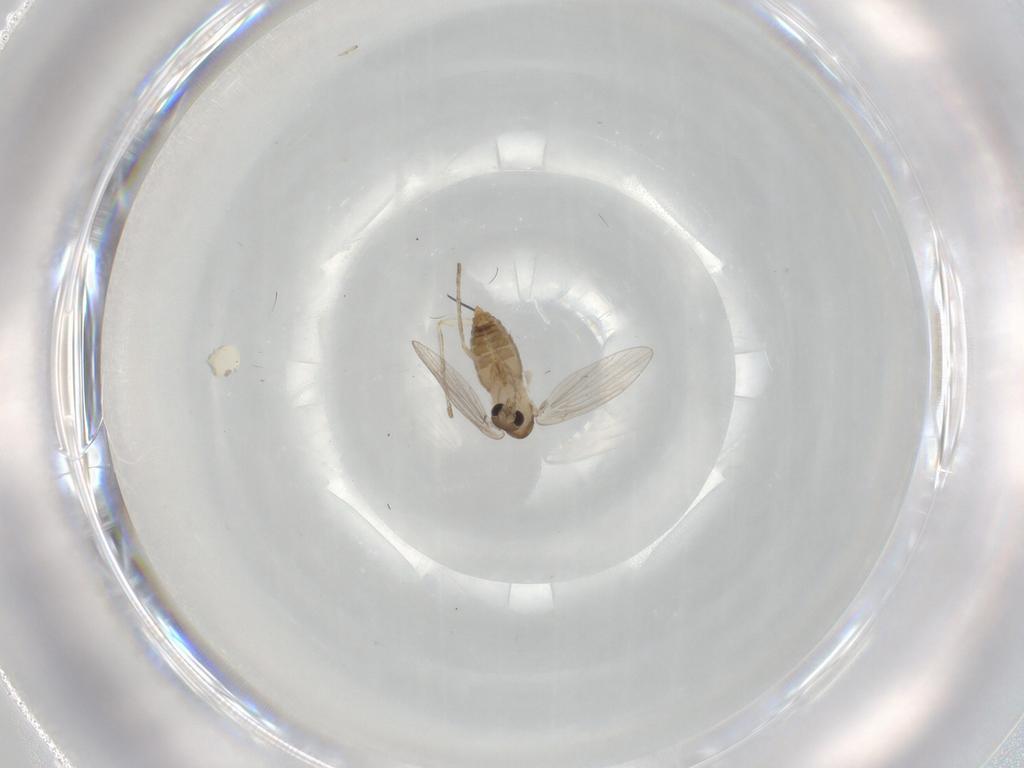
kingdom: Animalia
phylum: Arthropoda
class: Insecta
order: Diptera
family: Psychodidae
